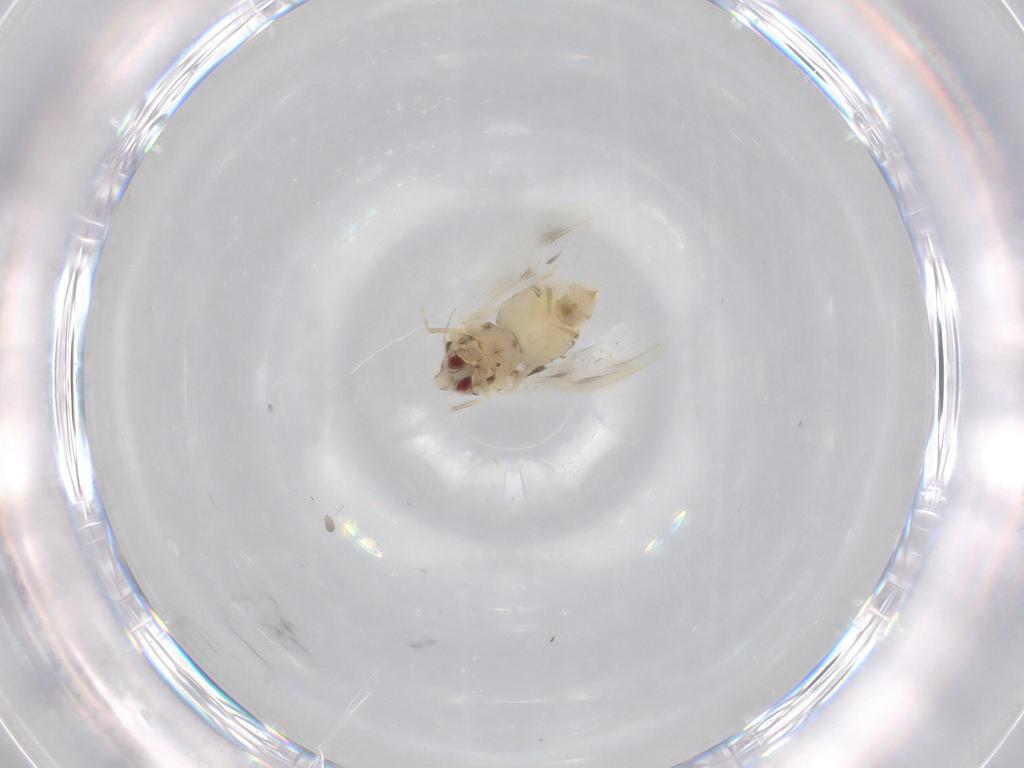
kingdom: Animalia
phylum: Arthropoda
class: Insecta
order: Hemiptera
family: Aleyrodidae
